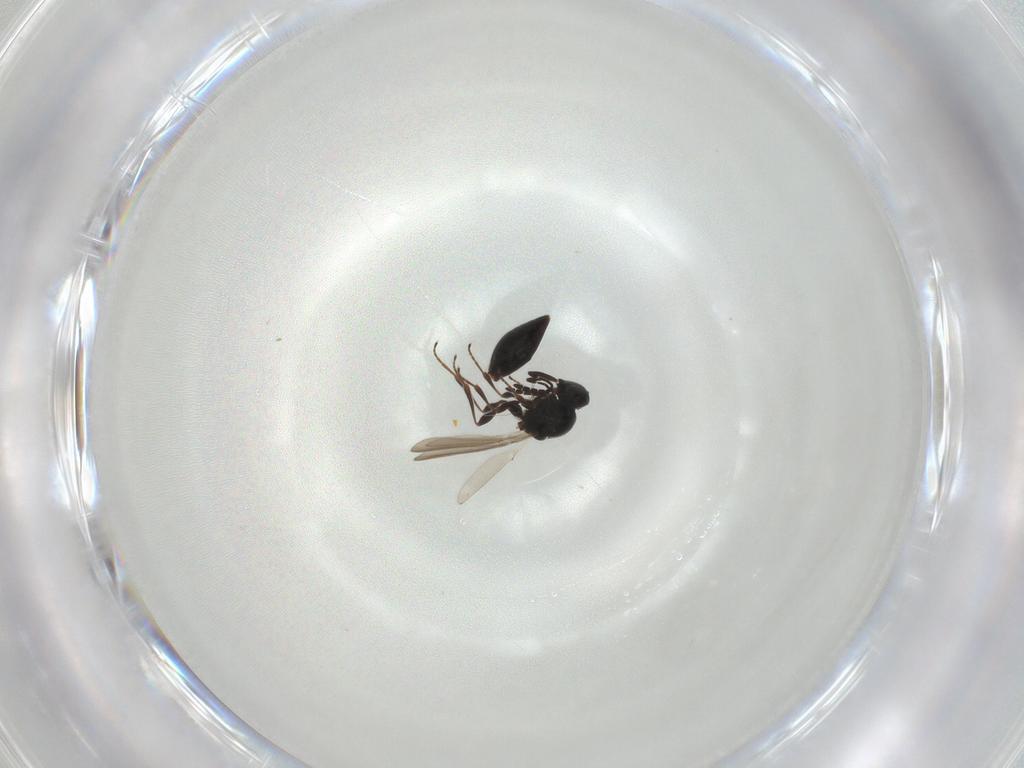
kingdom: Animalia
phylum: Arthropoda
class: Insecta
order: Hymenoptera
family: Platygastridae
